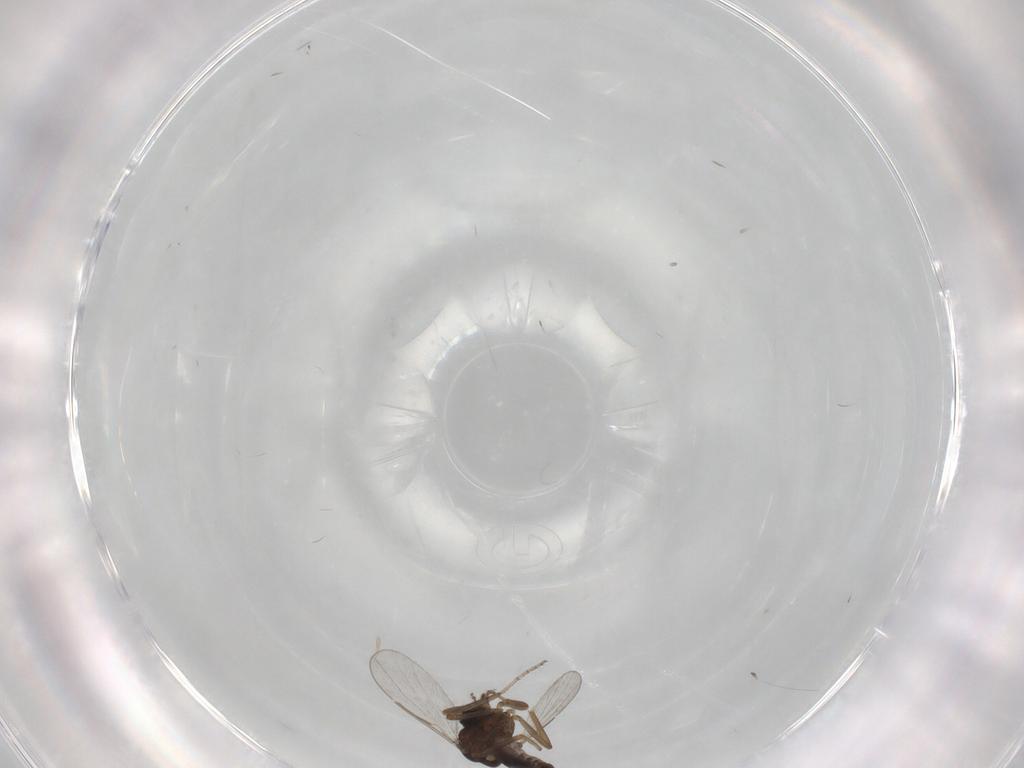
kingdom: Animalia
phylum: Arthropoda
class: Insecta
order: Diptera
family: Ceratopogonidae
